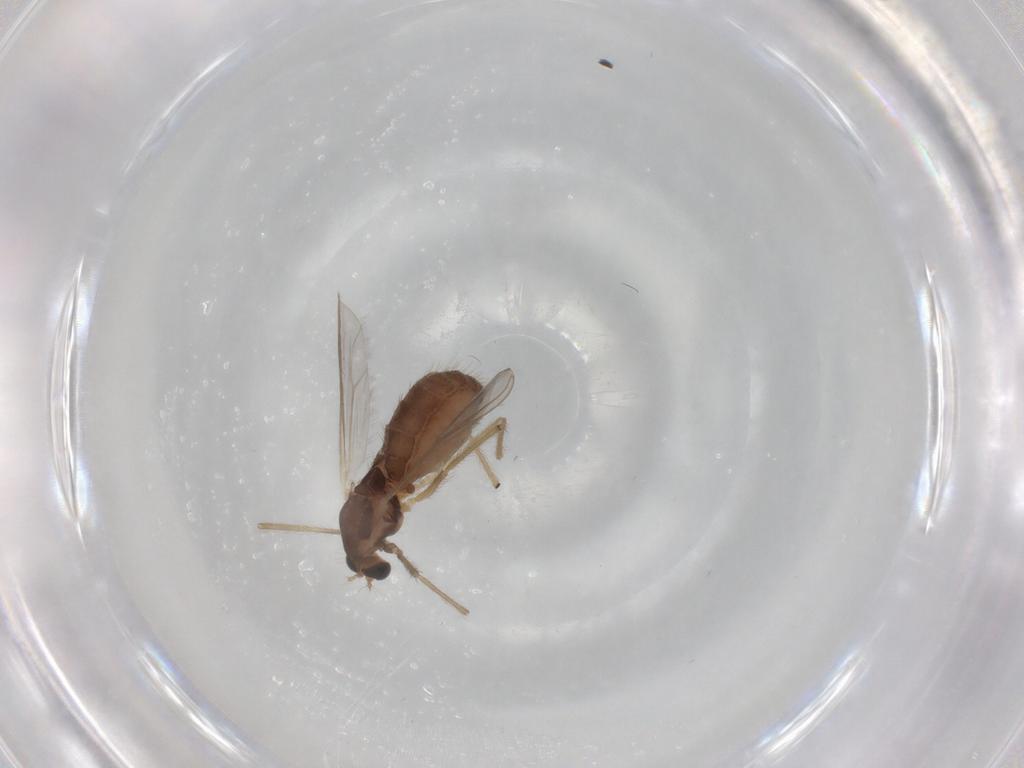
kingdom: Animalia
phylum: Arthropoda
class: Insecta
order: Diptera
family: Chironomidae
